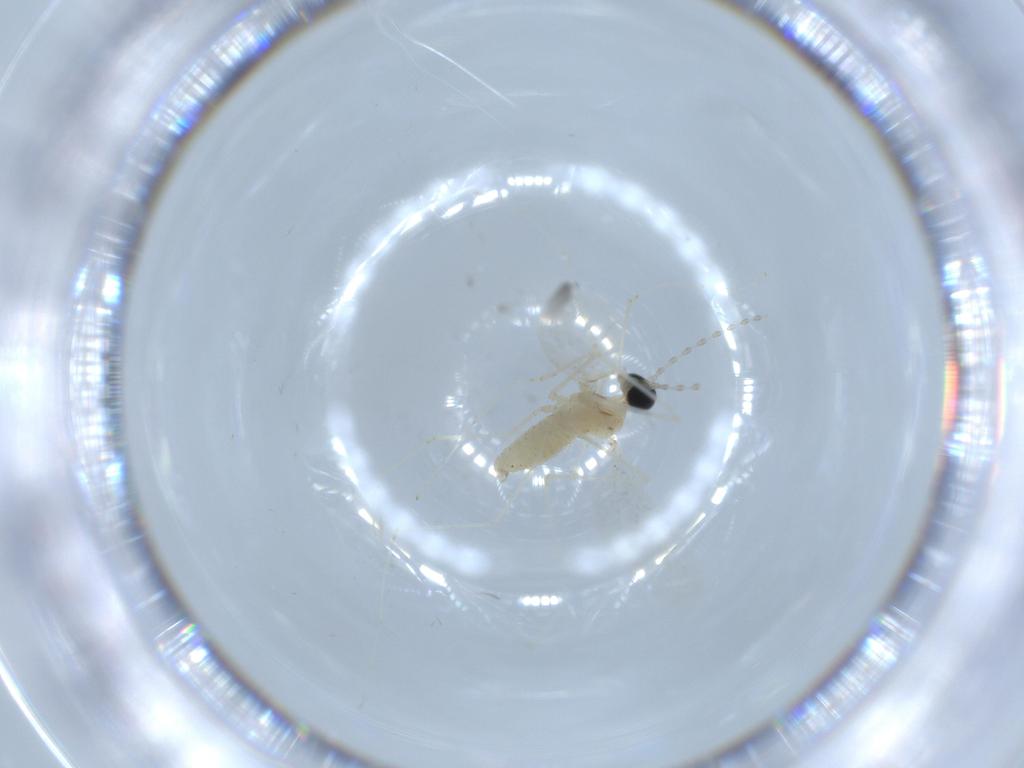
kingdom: Animalia
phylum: Arthropoda
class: Insecta
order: Diptera
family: Cecidomyiidae
